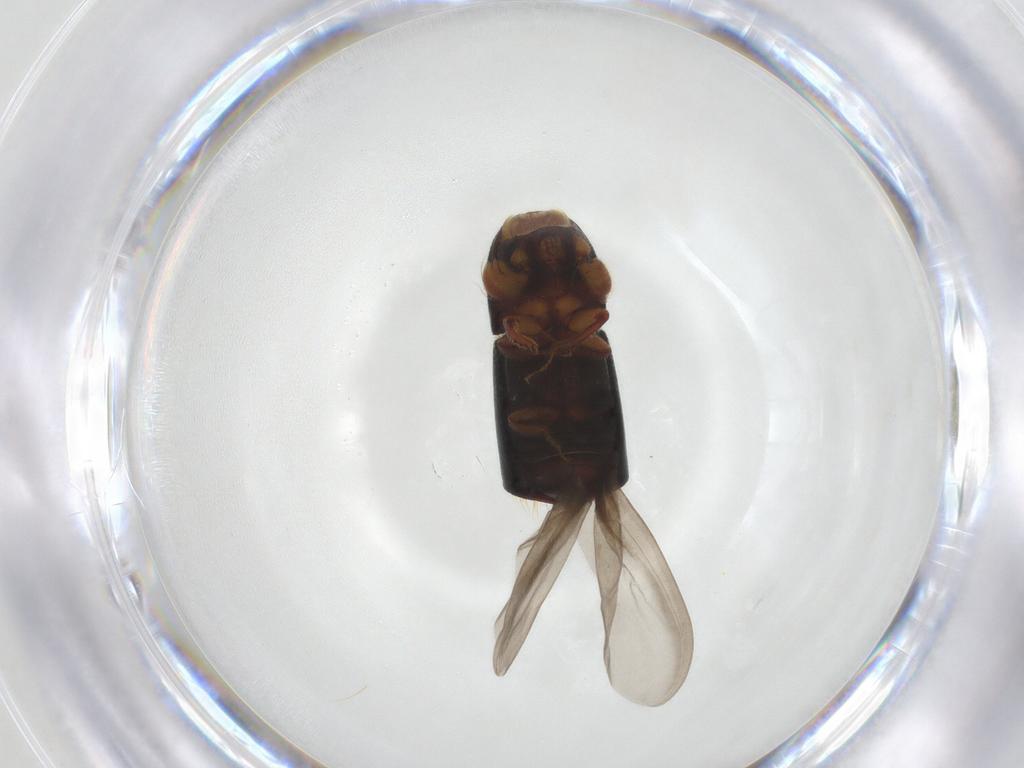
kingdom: Animalia
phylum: Arthropoda
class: Insecta
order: Coleoptera
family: Curculionidae
